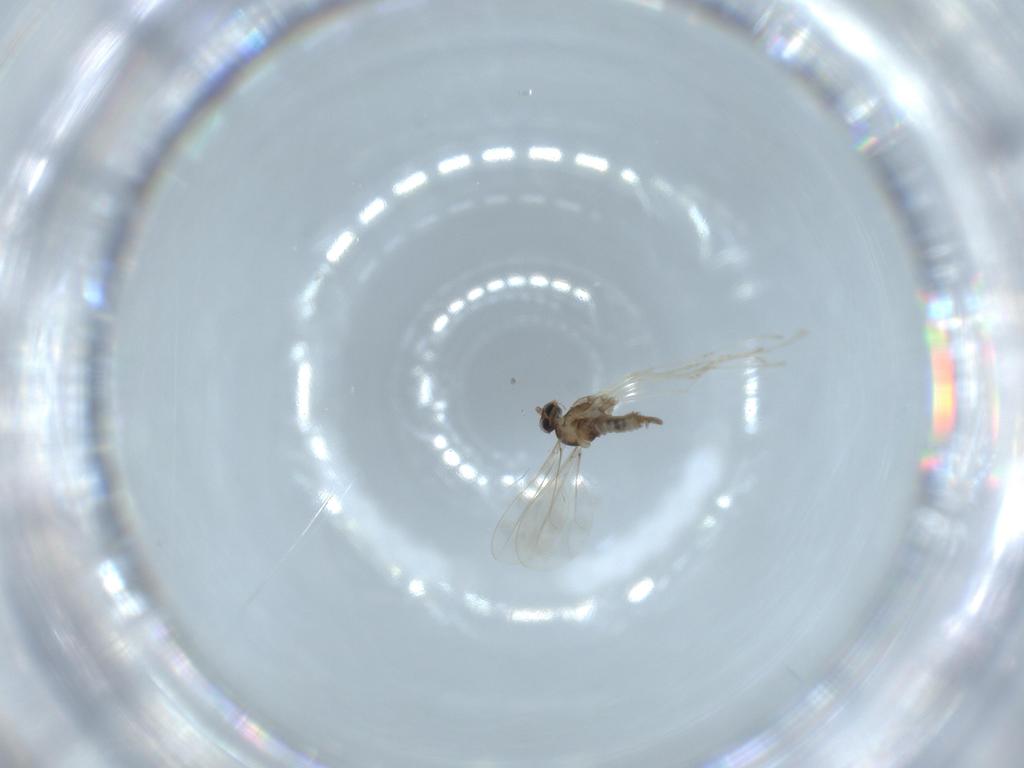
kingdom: Animalia
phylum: Arthropoda
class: Insecta
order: Diptera
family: Cecidomyiidae
